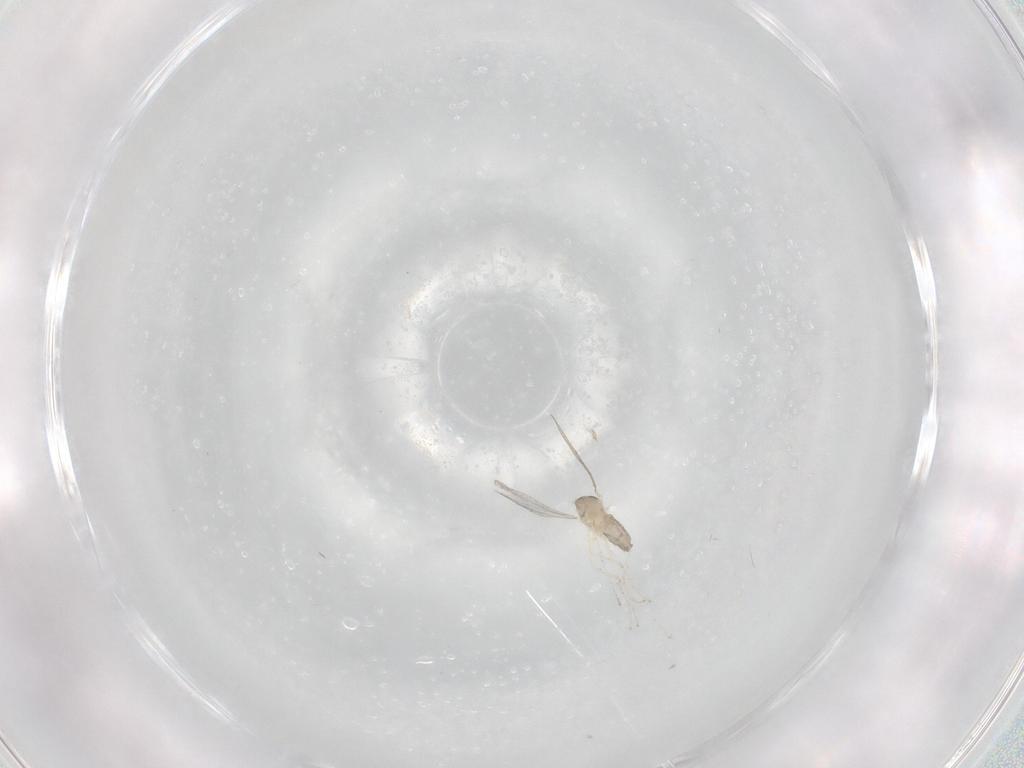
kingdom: Animalia
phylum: Arthropoda
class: Insecta
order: Diptera
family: Cecidomyiidae
